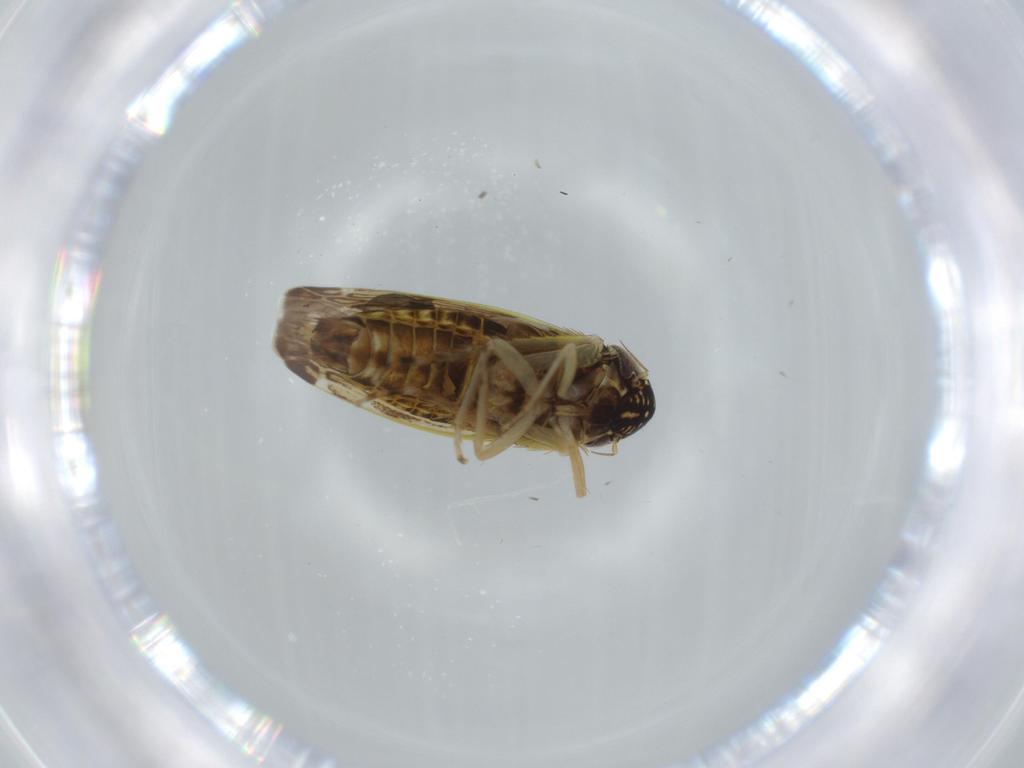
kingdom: Animalia
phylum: Arthropoda
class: Insecta
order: Hemiptera
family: Cicadellidae
